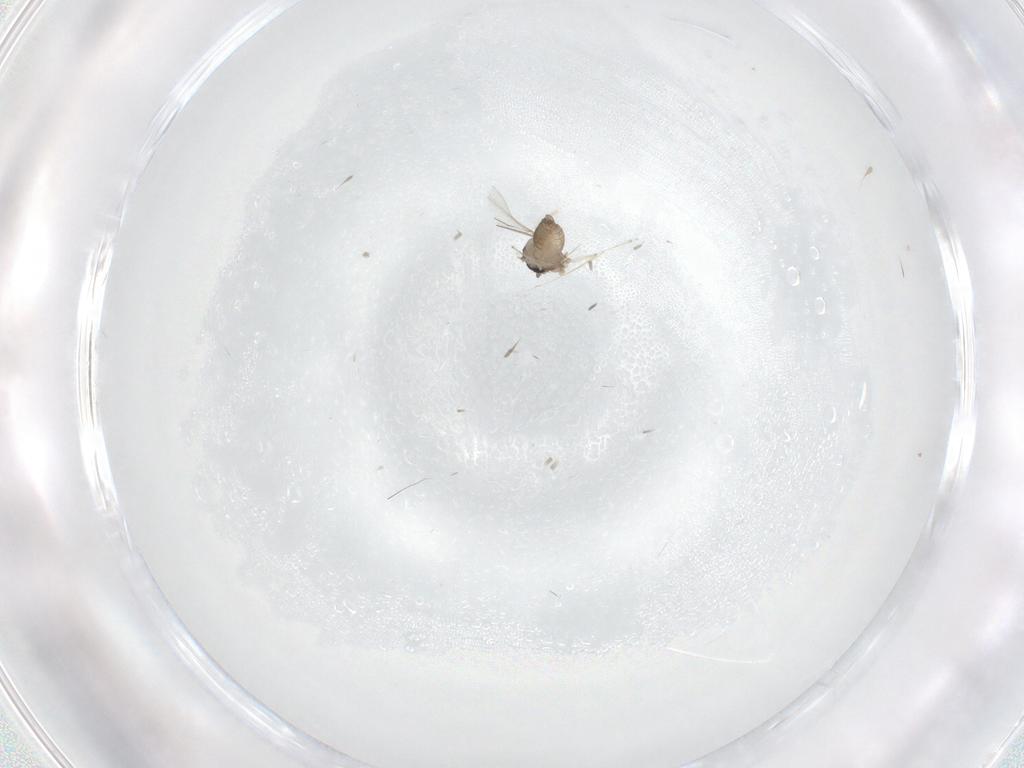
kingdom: Animalia
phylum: Arthropoda
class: Insecta
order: Diptera
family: Cecidomyiidae
